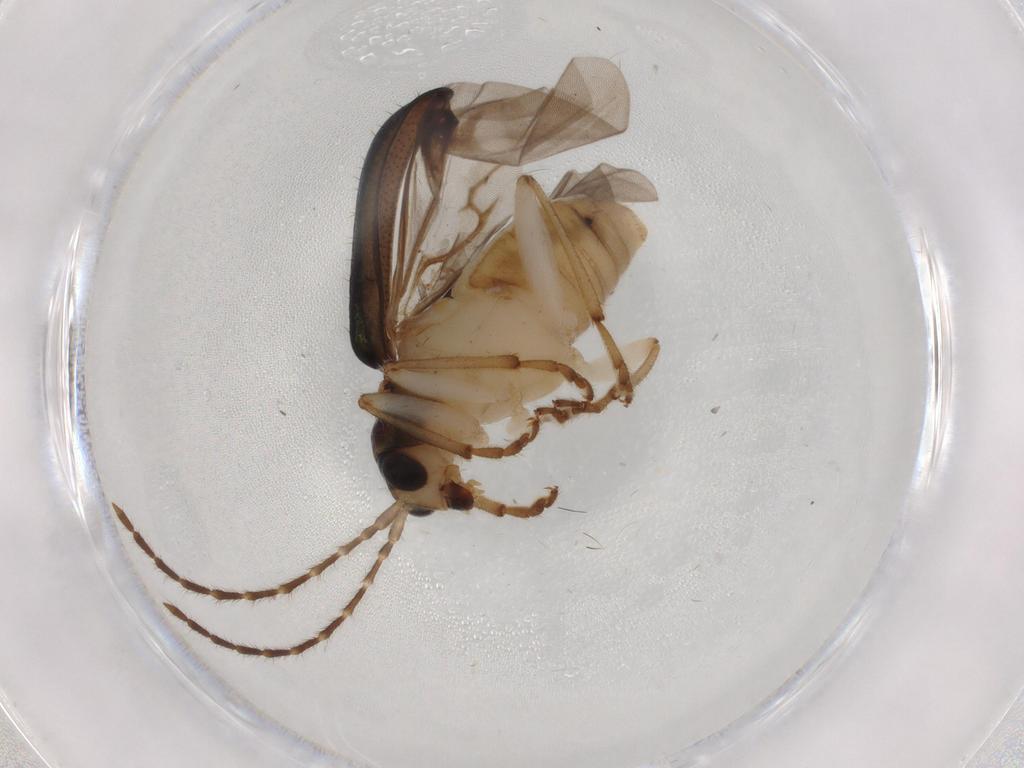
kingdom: Animalia
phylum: Arthropoda
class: Insecta
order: Coleoptera
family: Chrysomelidae
